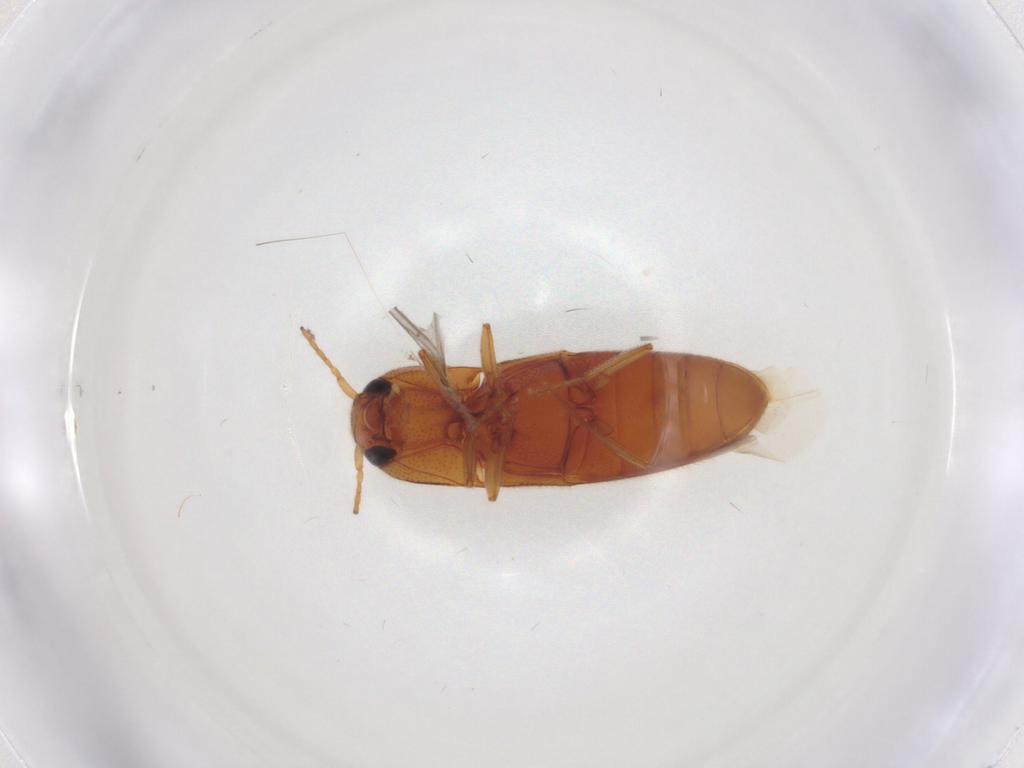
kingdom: Animalia
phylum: Arthropoda
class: Insecta
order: Coleoptera
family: Elateridae
